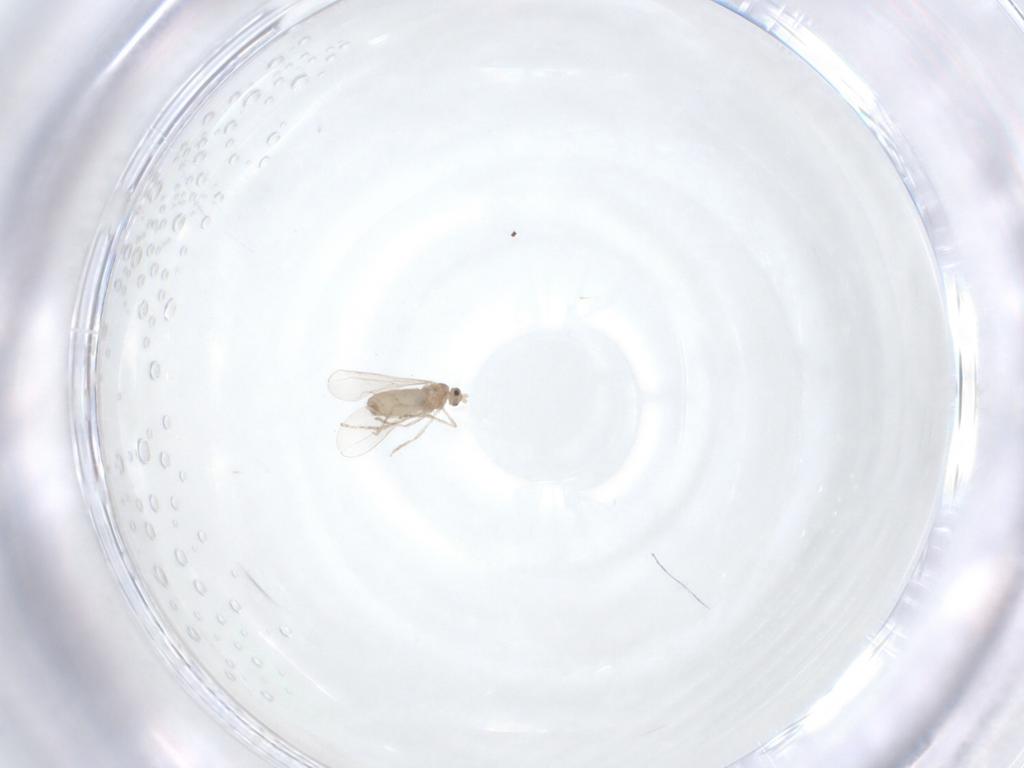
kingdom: Animalia
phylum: Arthropoda
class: Insecta
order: Diptera
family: Cecidomyiidae
